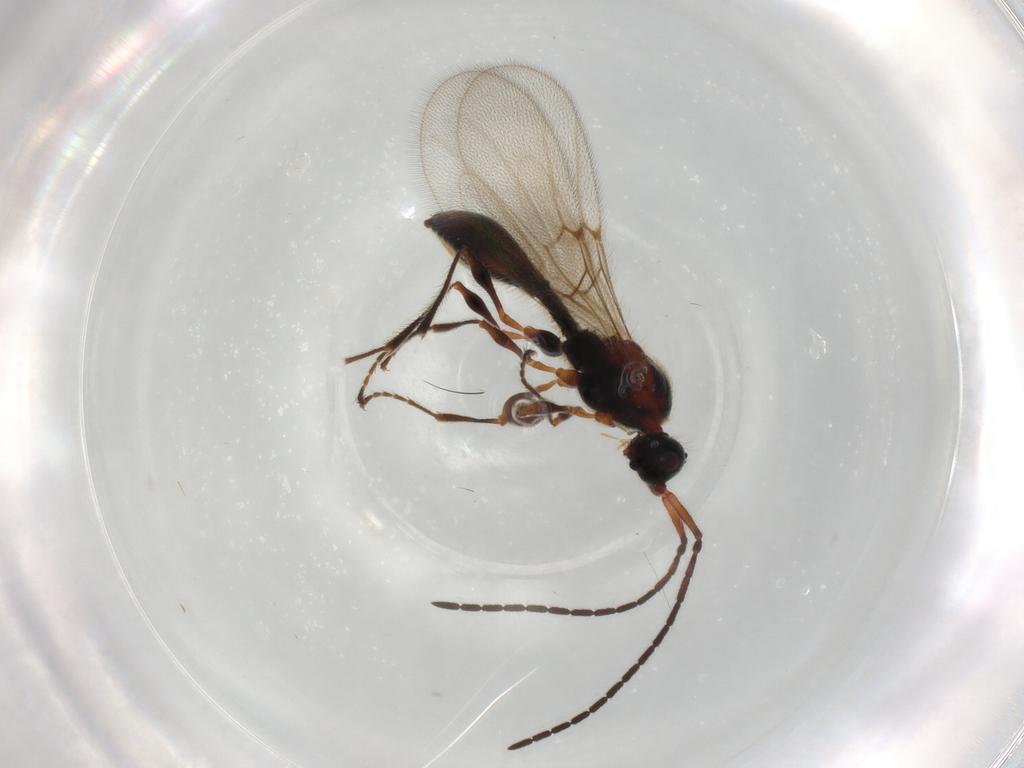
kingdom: Animalia
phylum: Arthropoda
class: Insecta
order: Hymenoptera
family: Diapriidae
